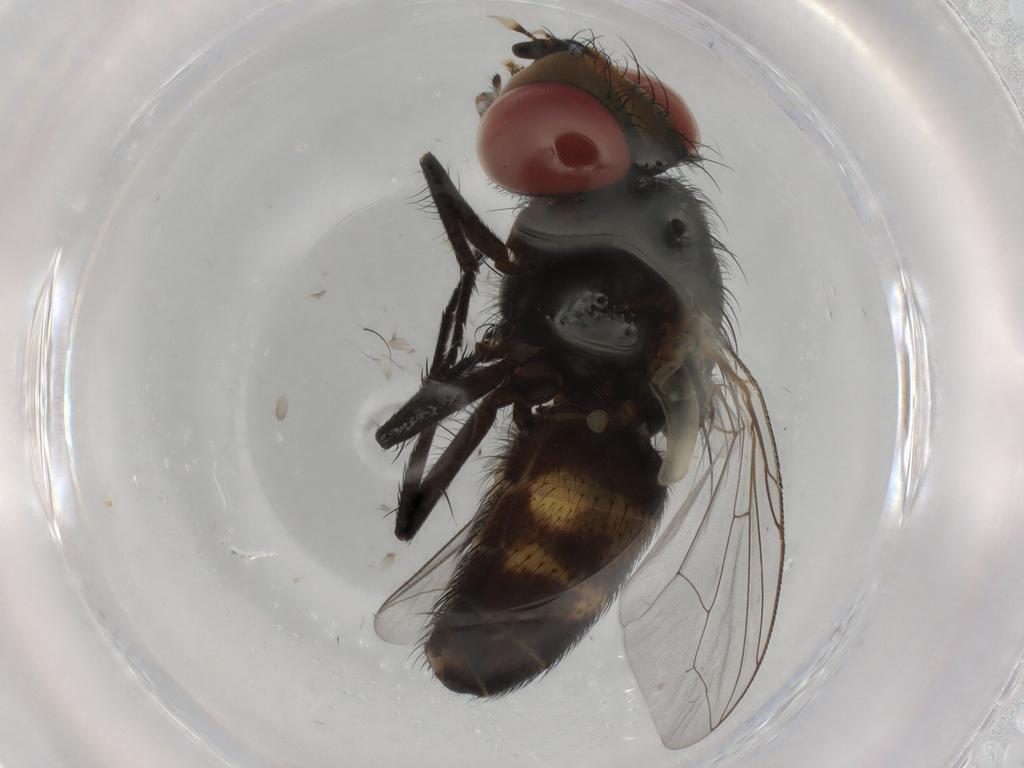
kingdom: Animalia
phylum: Arthropoda
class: Insecta
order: Diptera
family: Sarcophagidae
